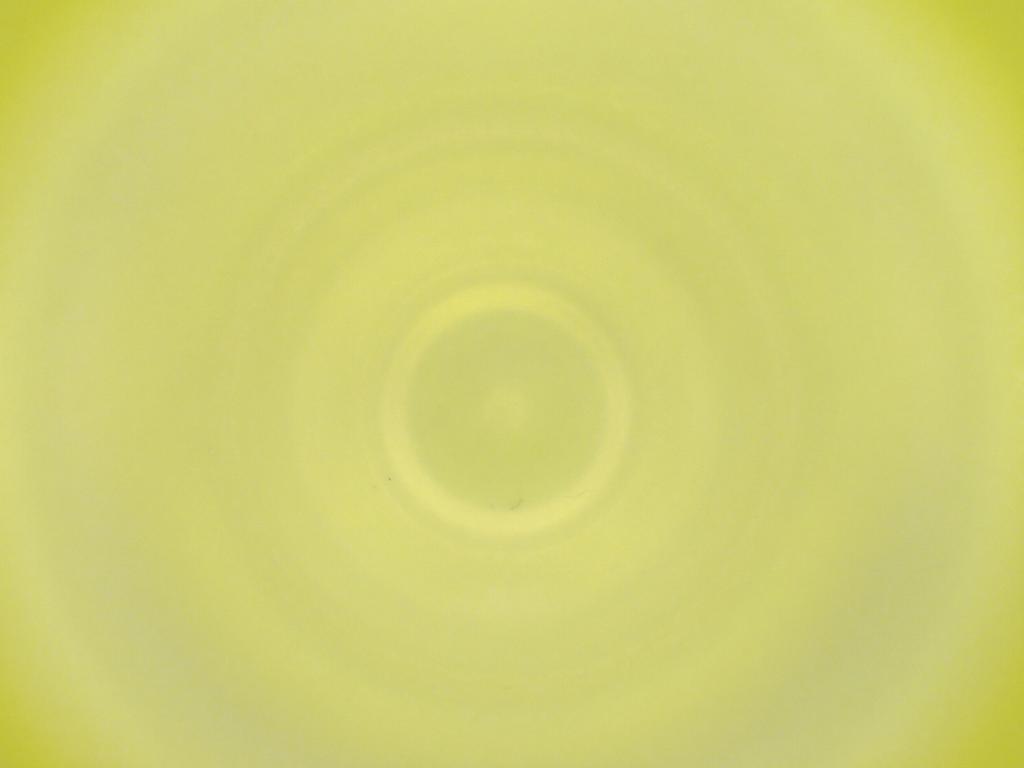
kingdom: Animalia
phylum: Arthropoda
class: Insecta
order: Diptera
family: Cecidomyiidae
